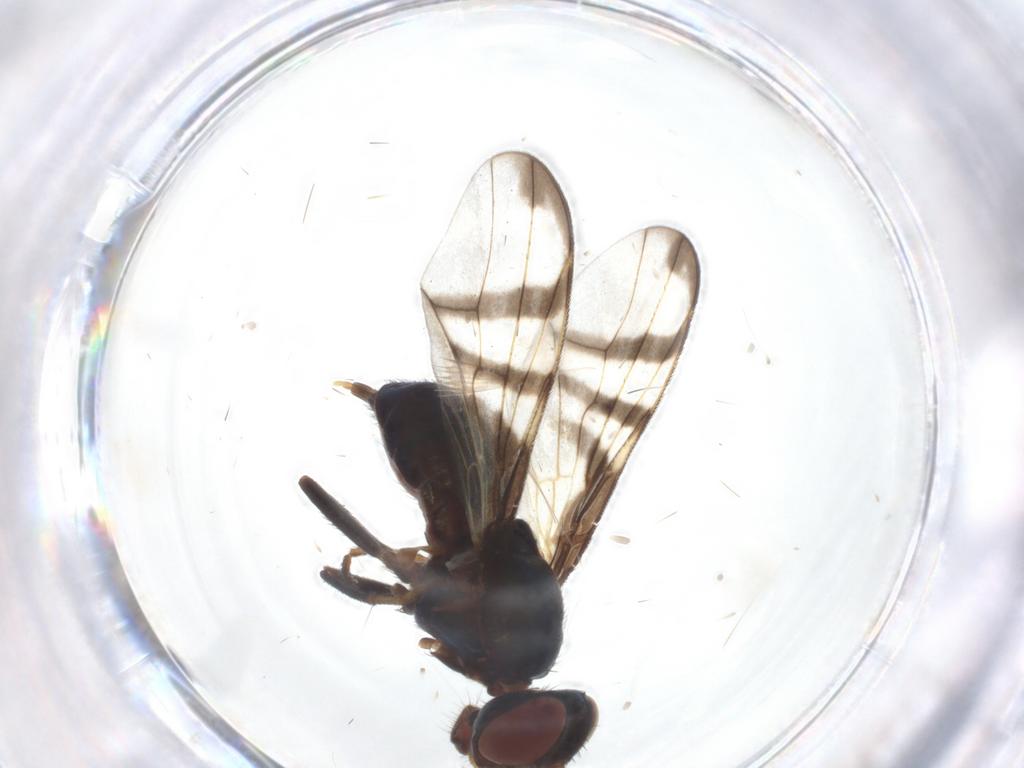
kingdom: Animalia
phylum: Arthropoda
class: Insecta
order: Diptera
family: Platystomatidae
